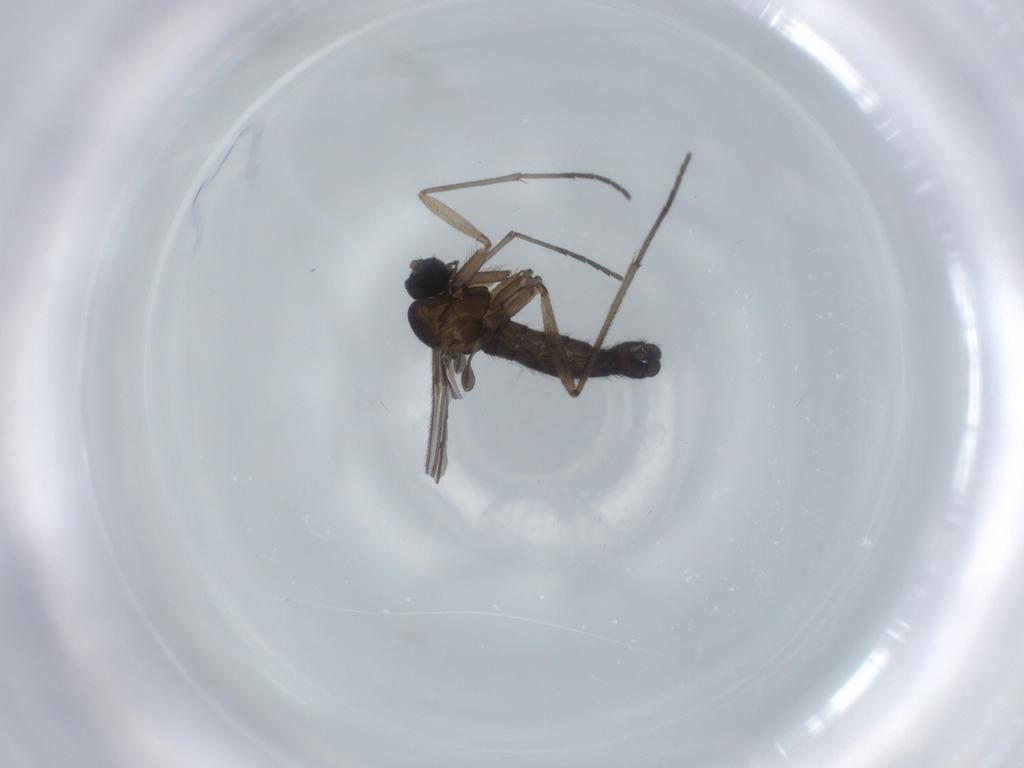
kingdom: Animalia
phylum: Arthropoda
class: Insecta
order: Diptera
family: Sciaridae
